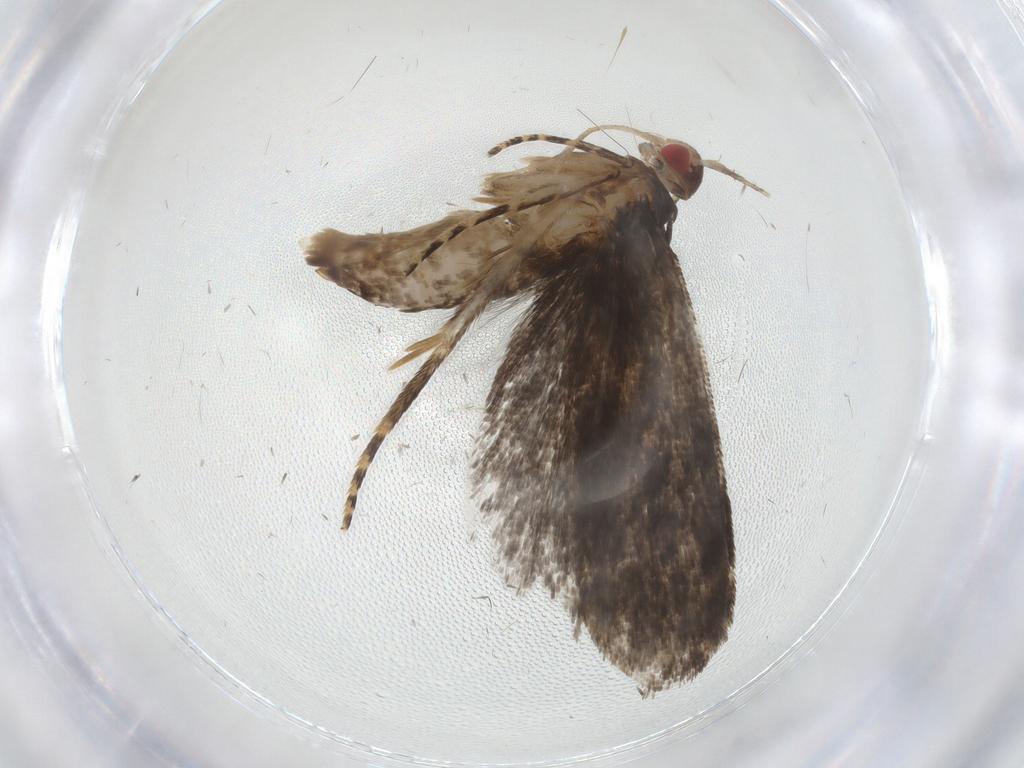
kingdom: Animalia
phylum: Arthropoda
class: Insecta
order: Lepidoptera
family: Gelechiidae
